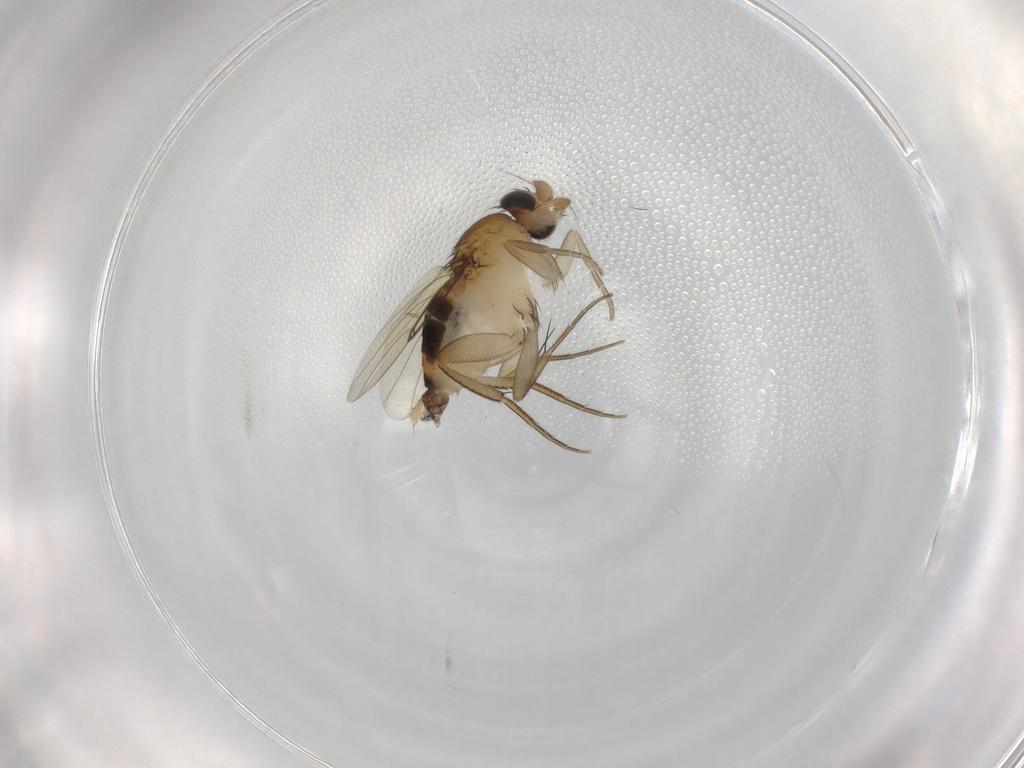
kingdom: Animalia
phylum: Arthropoda
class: Insecta
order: Diptera
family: Phoridae
